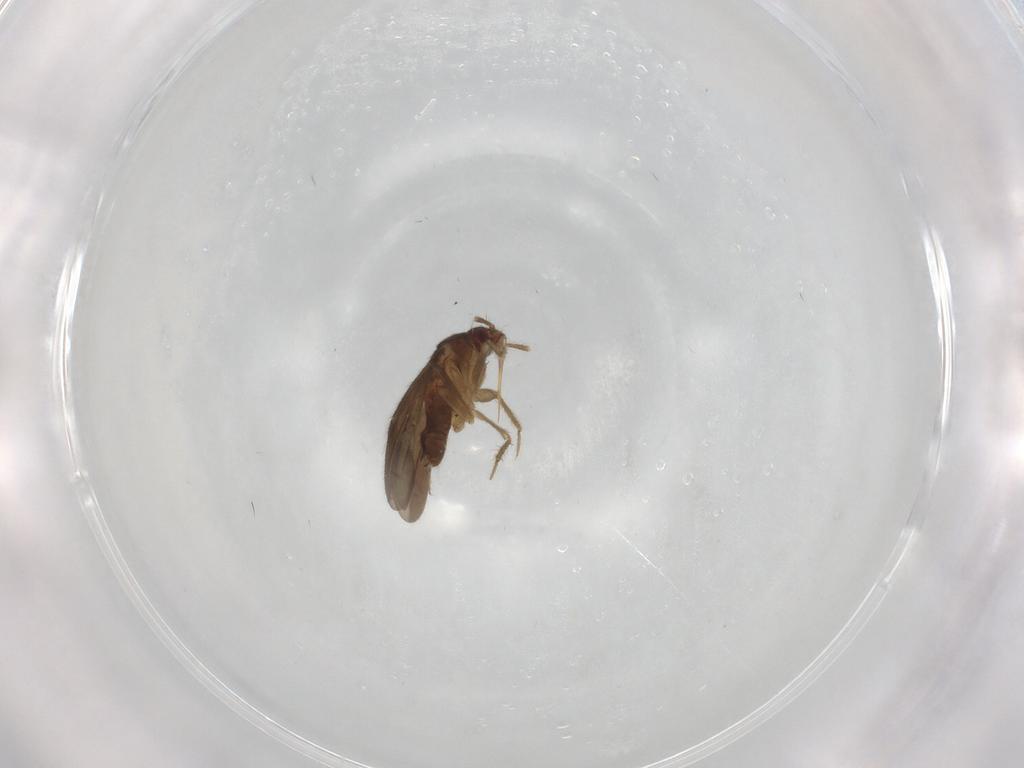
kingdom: Animalia
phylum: Arthropoda
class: Insecta
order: Hemiptera
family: Ceratocombidae
